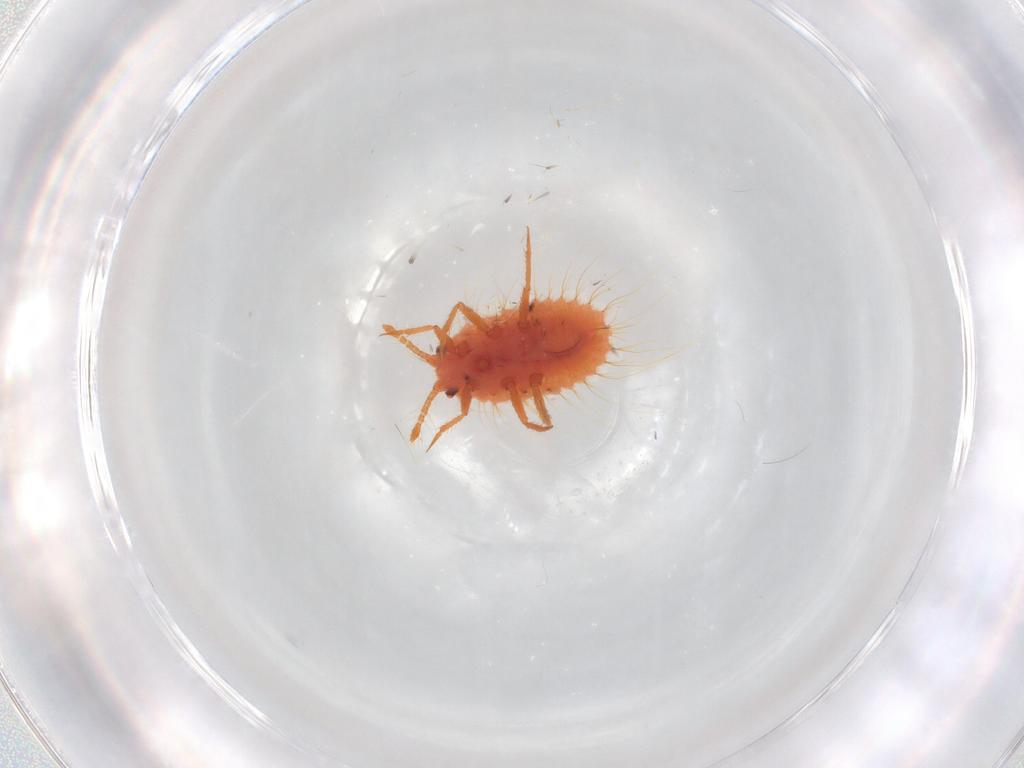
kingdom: Animalia
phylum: Arthropoda
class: Insecta
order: Hemiptera
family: Coccoidea_incertae_sedis
